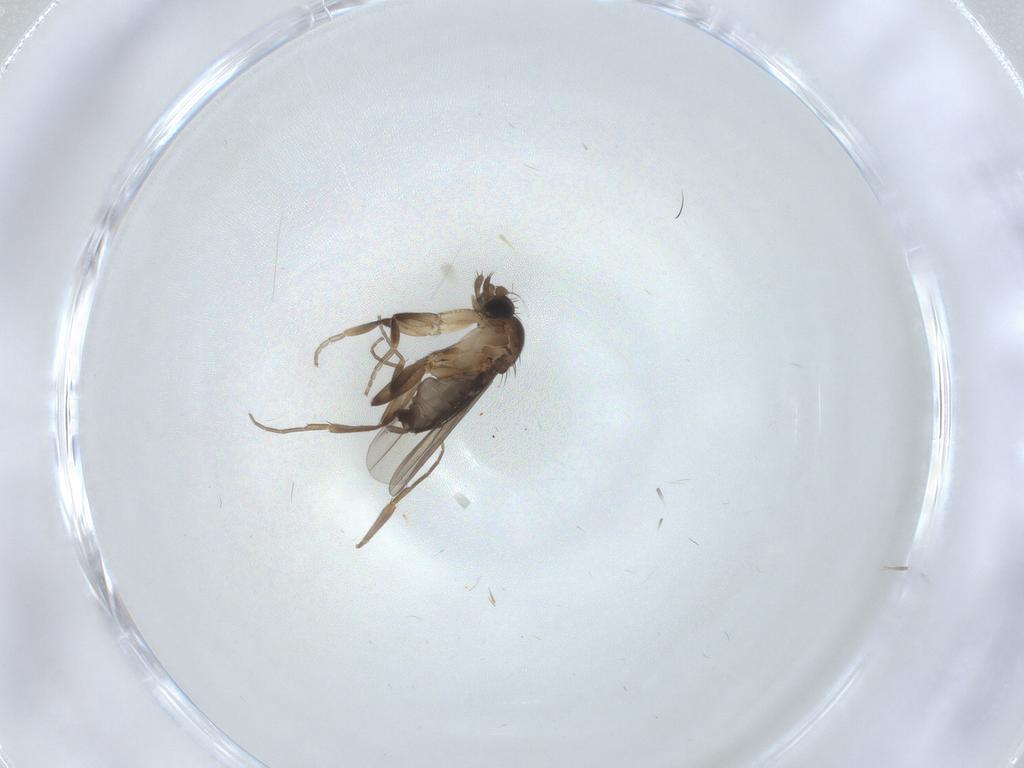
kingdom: Animalia
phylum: Arthropoda
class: Insecta
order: Diptera
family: Phoridae
